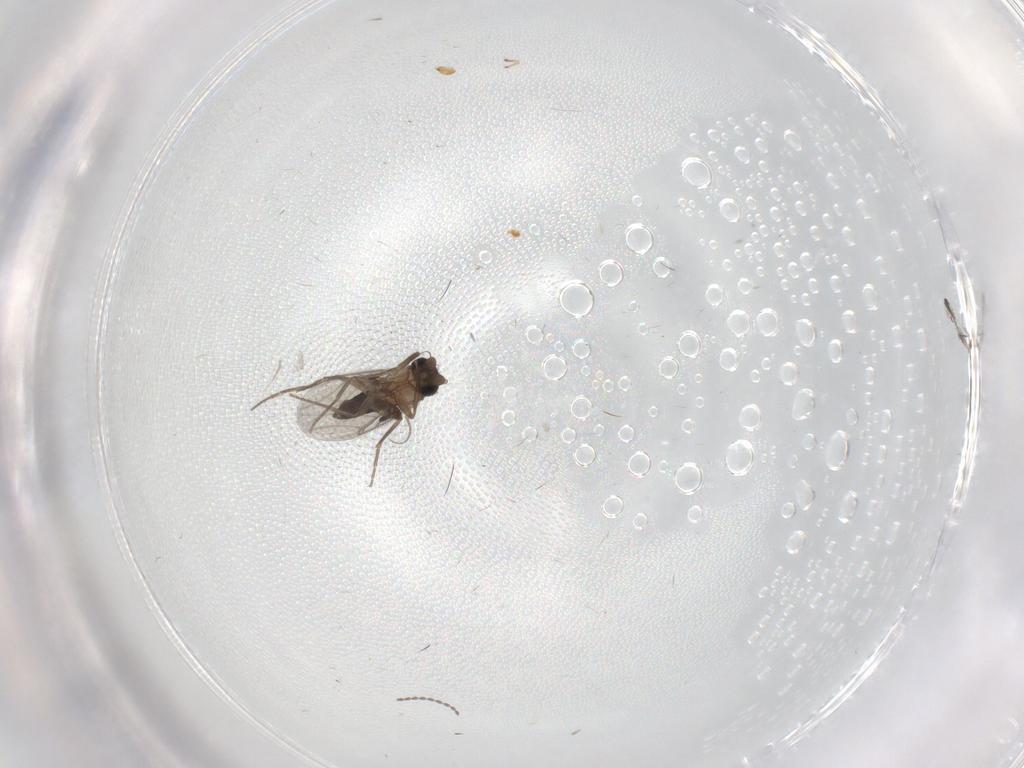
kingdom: Animalia
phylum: Arthropoda
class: Insecta
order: Diptera
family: Cecidomyiidae
